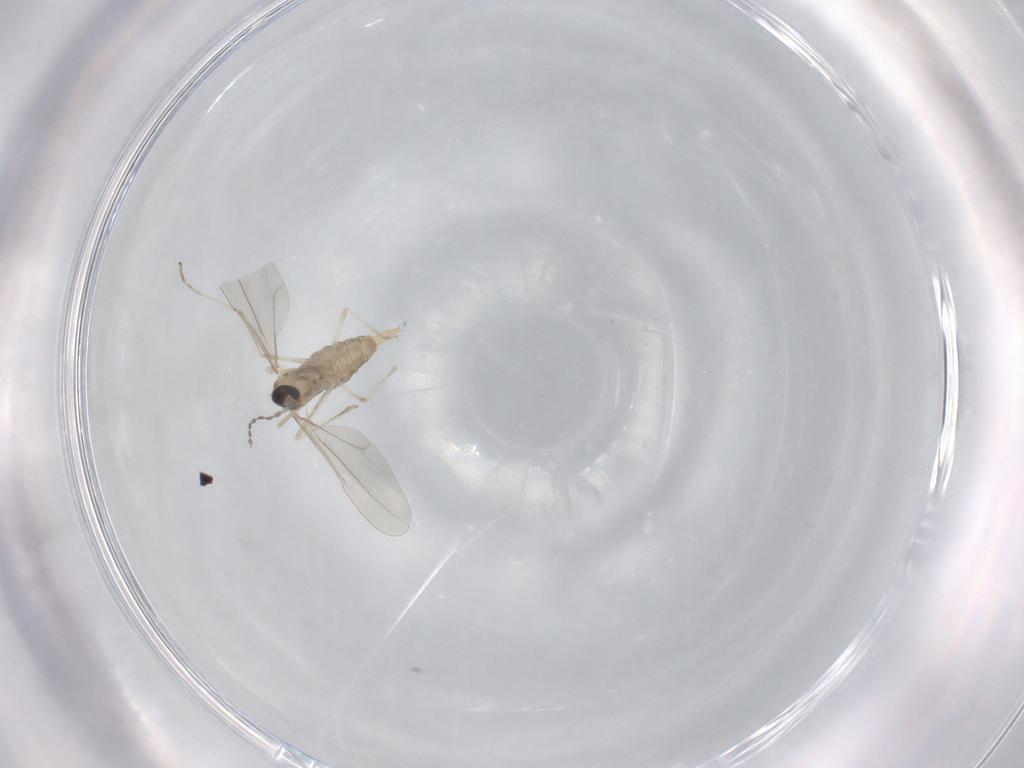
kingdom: Animalia
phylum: Arthropoda
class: Insecta
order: Diptera
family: Cecidomyiidae
